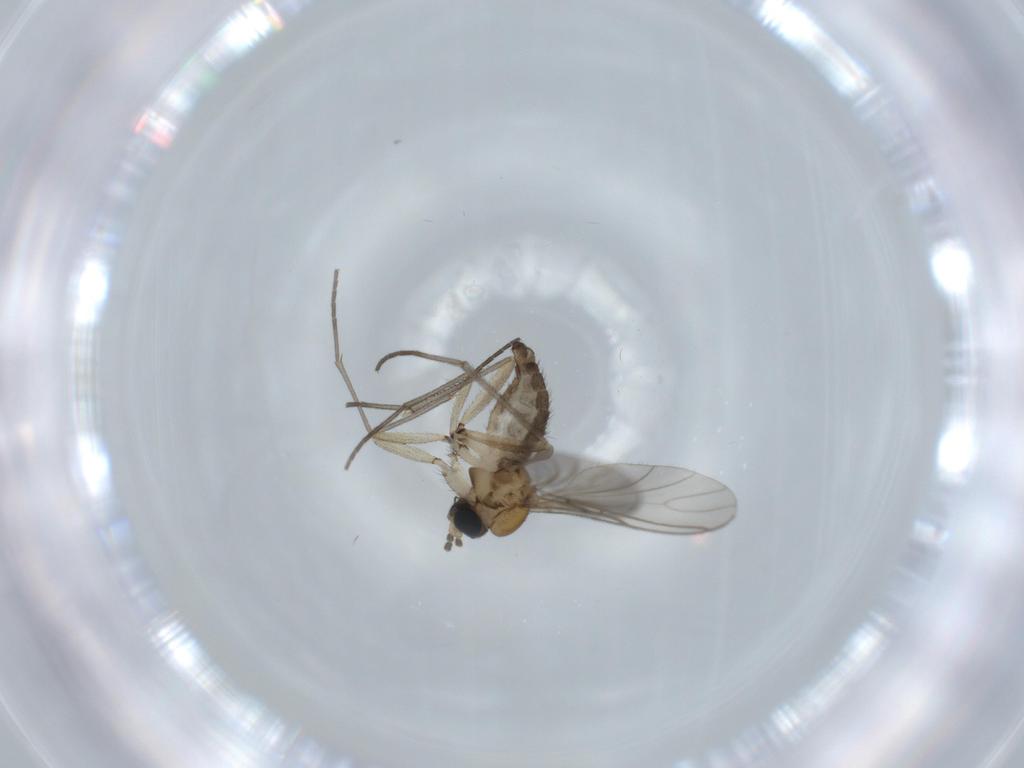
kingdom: Animalia
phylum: Arthropoda
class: Insecta
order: Diptera
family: Sciaridae
